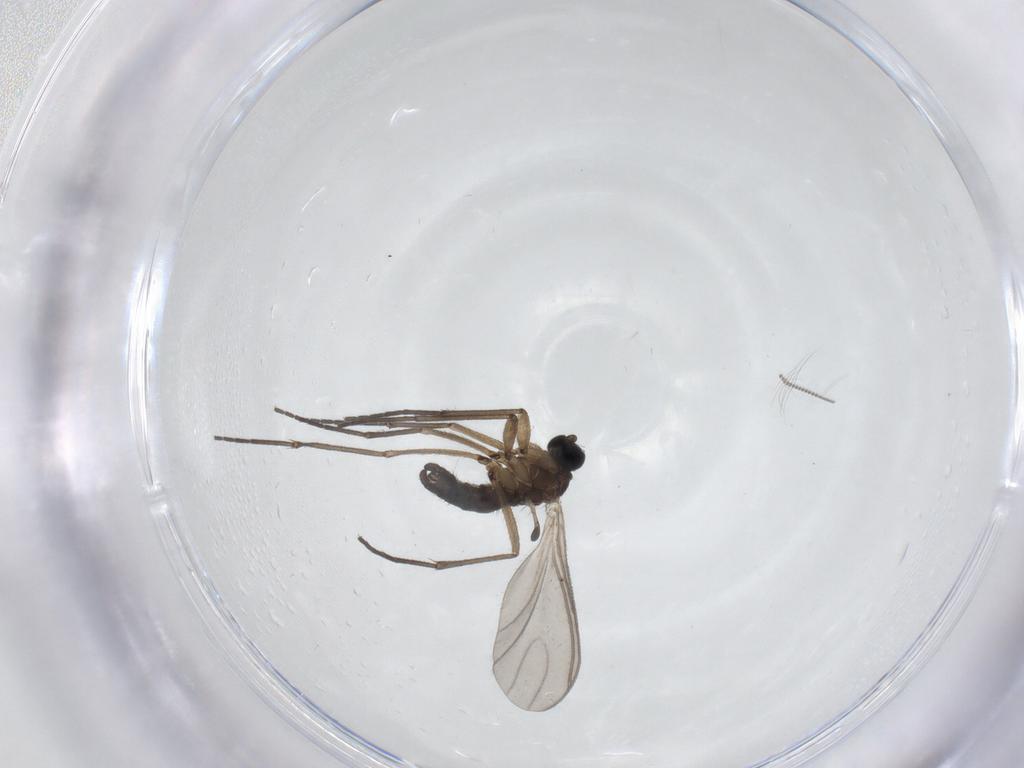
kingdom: Animalia
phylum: Arthropoda
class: Insecta
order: Diptera
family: Sciaridae
